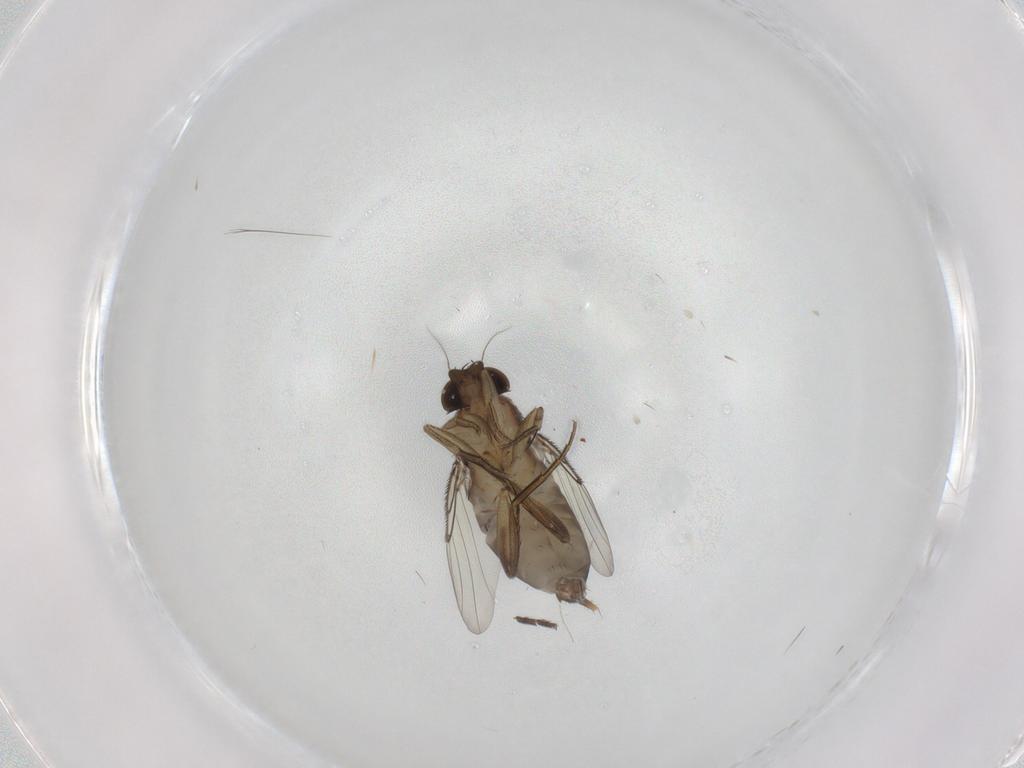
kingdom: Animalia
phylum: Arthropoda
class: Insecta
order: Diptera
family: Phoridae
